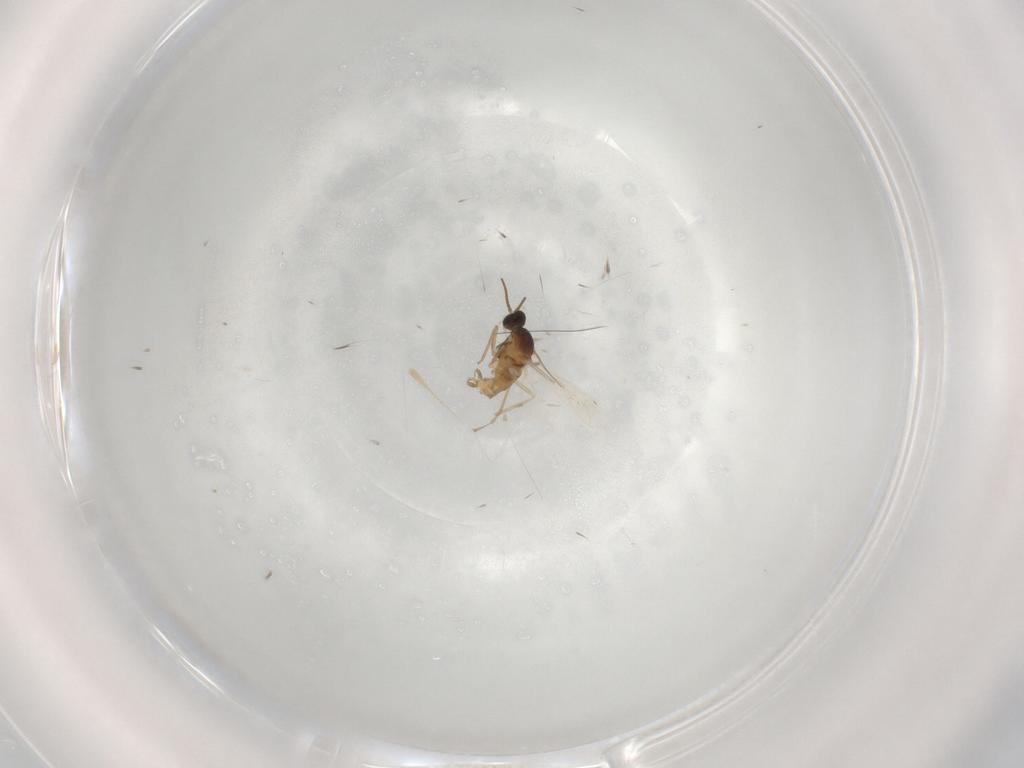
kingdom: Animalia
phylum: Arthropoda
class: Insecta
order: Diptera
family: Cecidomyiidae
